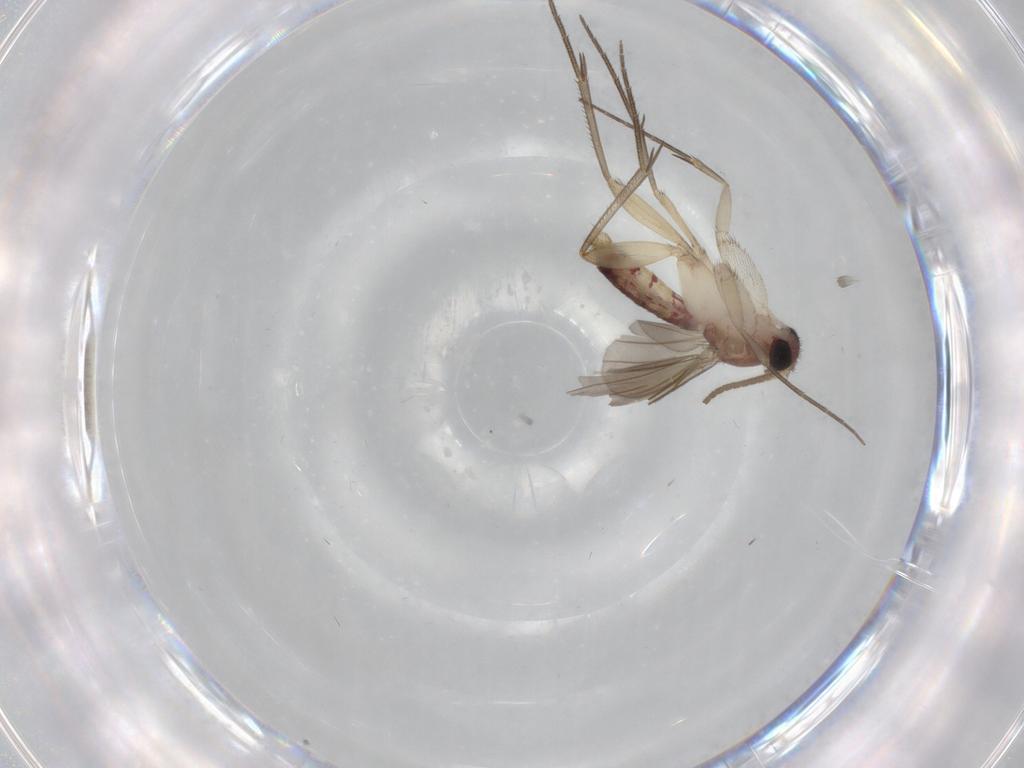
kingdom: Animalia
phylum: Arthropoda
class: Insecta
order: Diptera
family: Mycetophilidae
